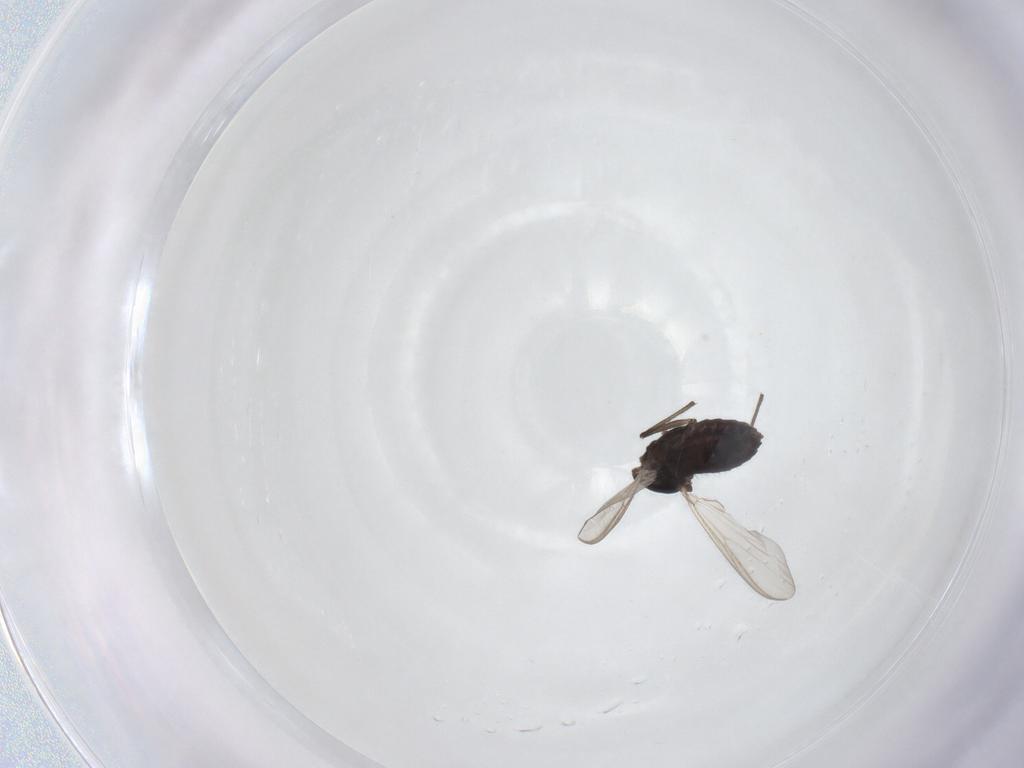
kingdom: Animalia
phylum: Arthropoda
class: Insecta
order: Diptera
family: Chironomidae
